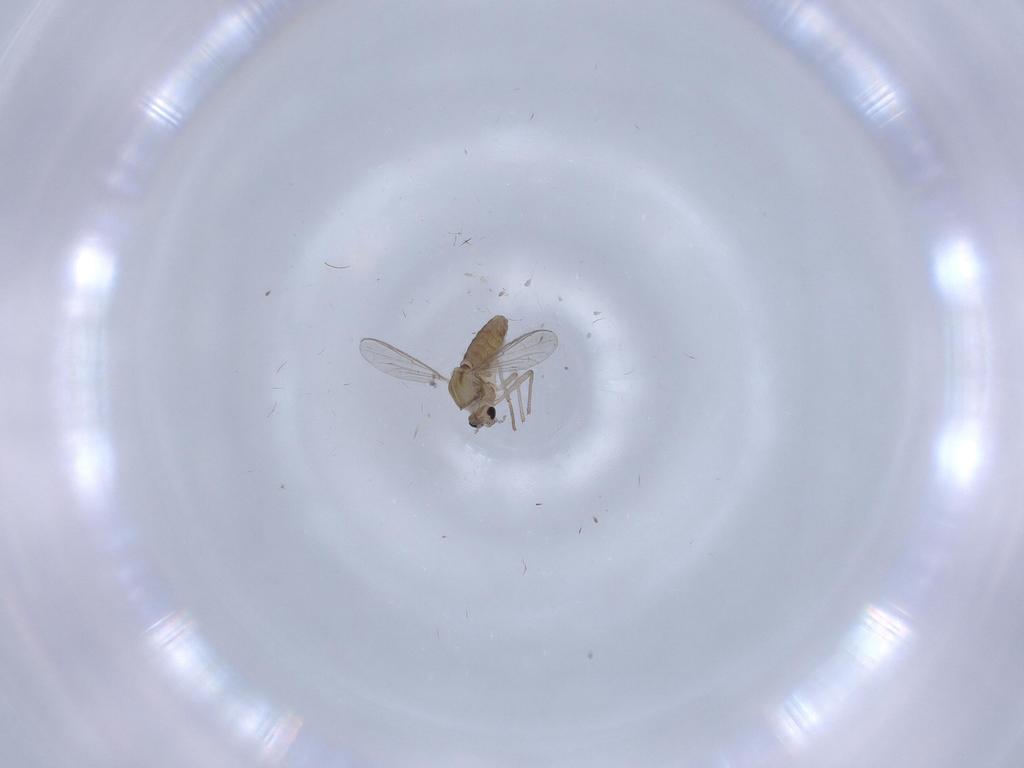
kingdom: Animalia
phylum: Arthropoda
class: Insecta
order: Diptera
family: Chironomidae
